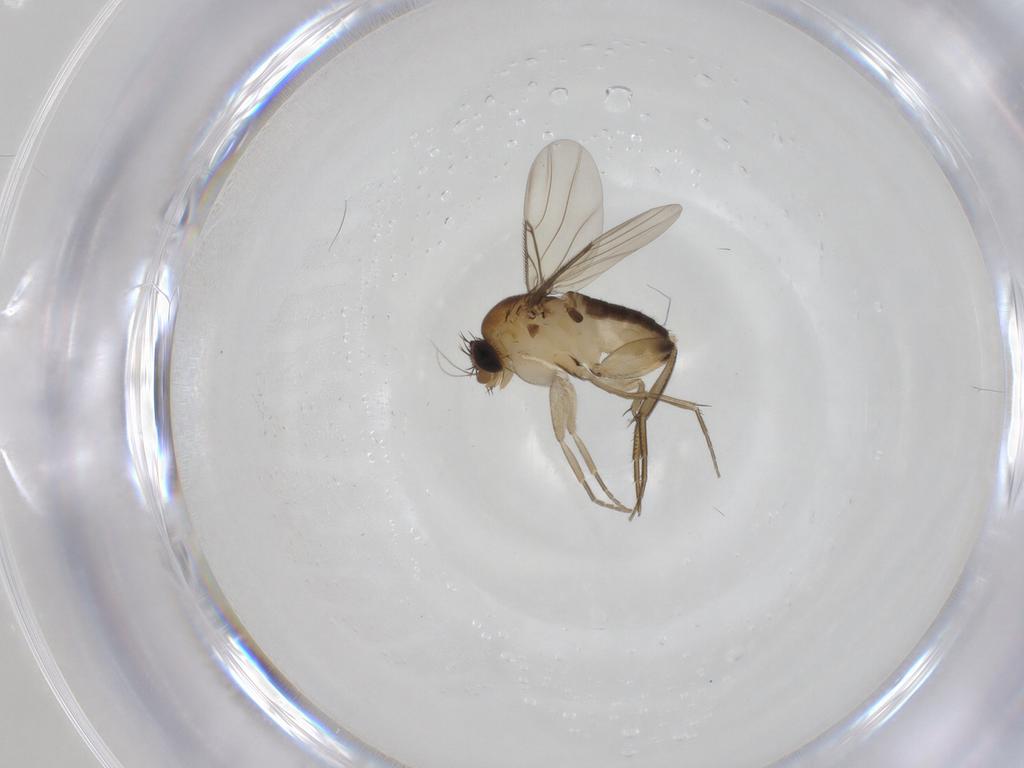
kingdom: Animalia
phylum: Arthropoda
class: Insecta
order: Diptera
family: Phoridae
